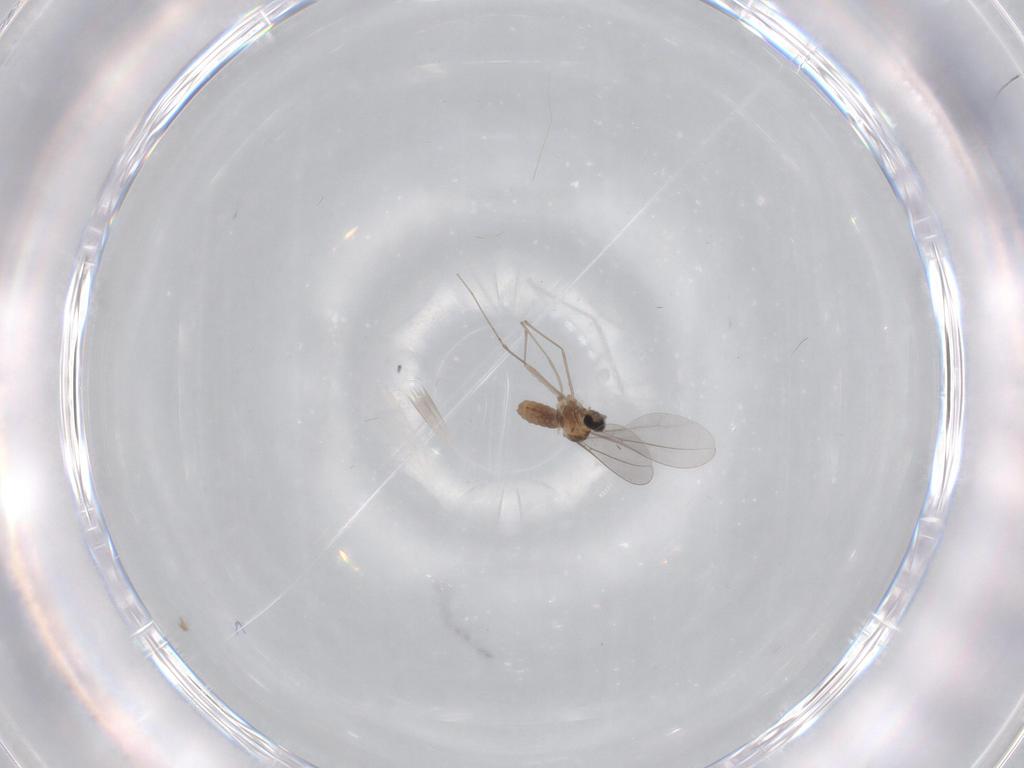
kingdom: Animalia
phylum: Arthropoda
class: Insecta
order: Diptera
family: Cecidomyiidae
